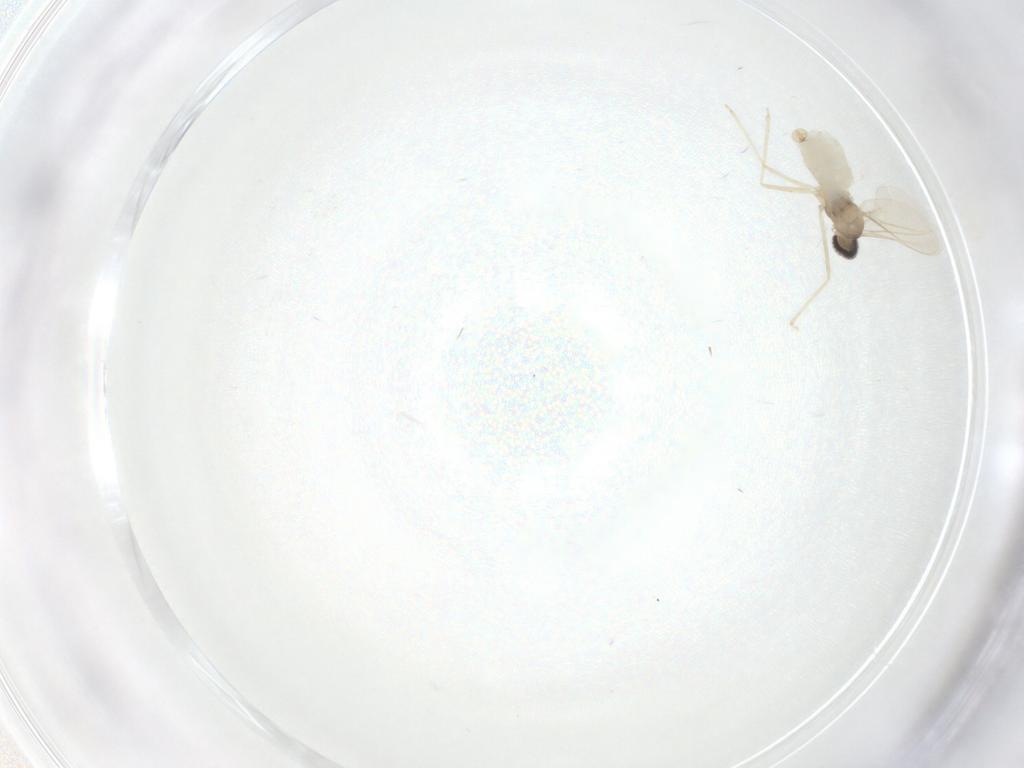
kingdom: Animalia
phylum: Arthropoda
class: Insecta
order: Diptera
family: Cecidomyiidae
